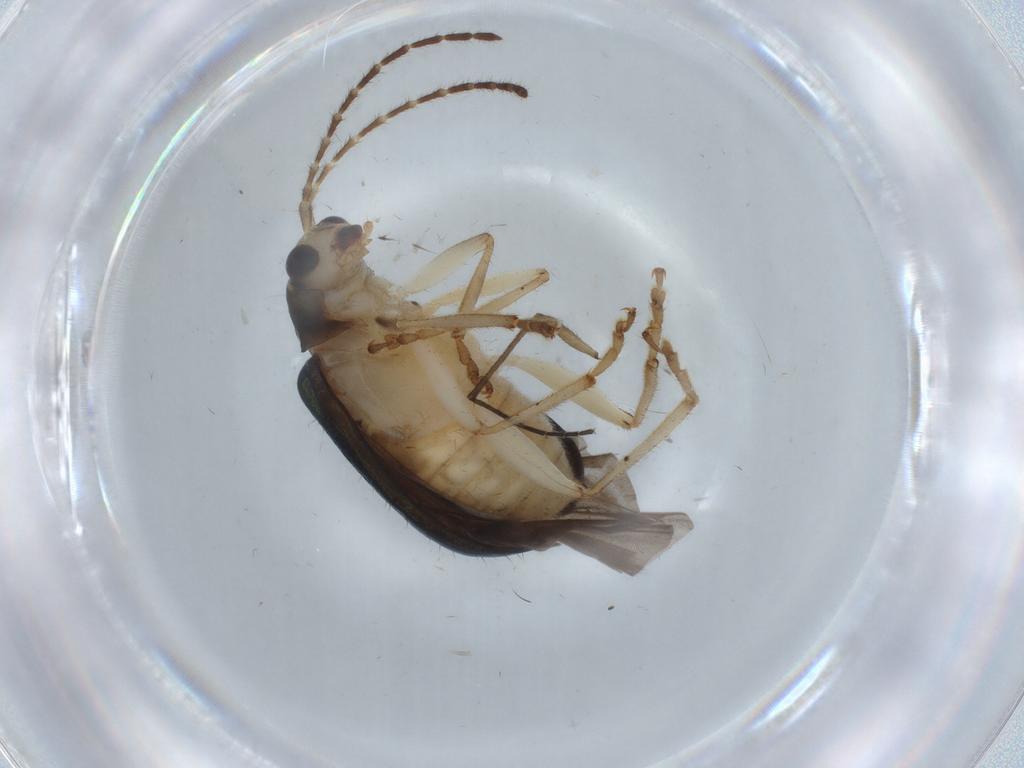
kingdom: Animalia
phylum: Arthropoda
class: Insecta
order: Coleoptera
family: Chrysomelidae
